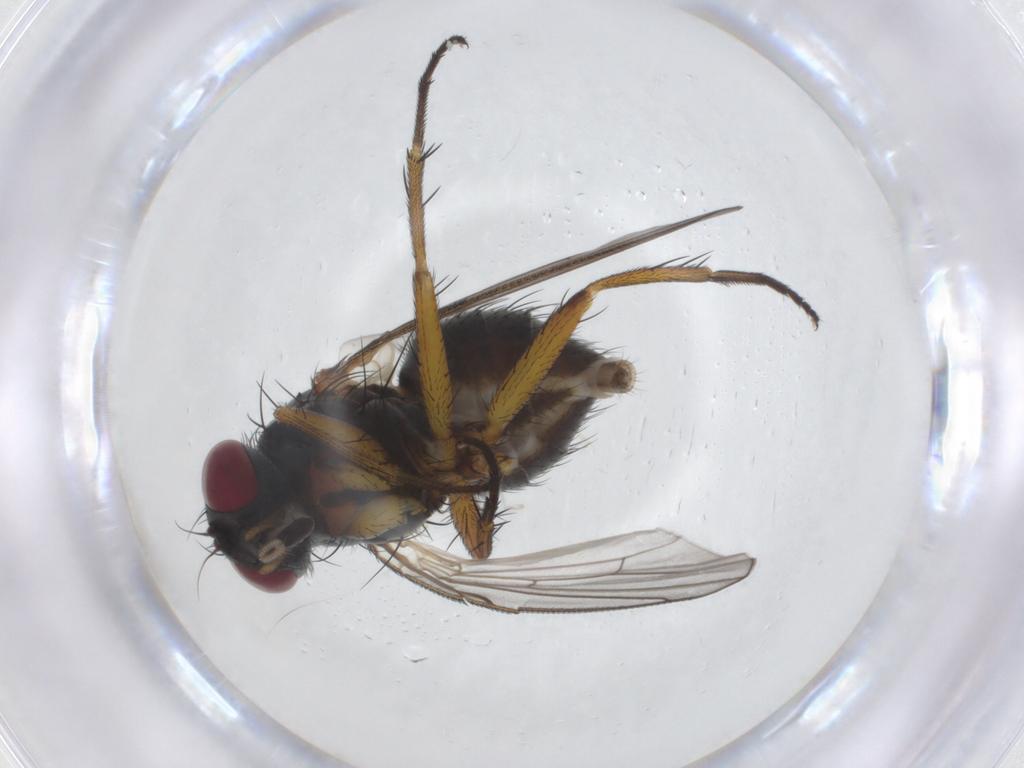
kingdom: Animalia
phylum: Arthropoda
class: Insecta
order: Diptera
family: Muscidae
